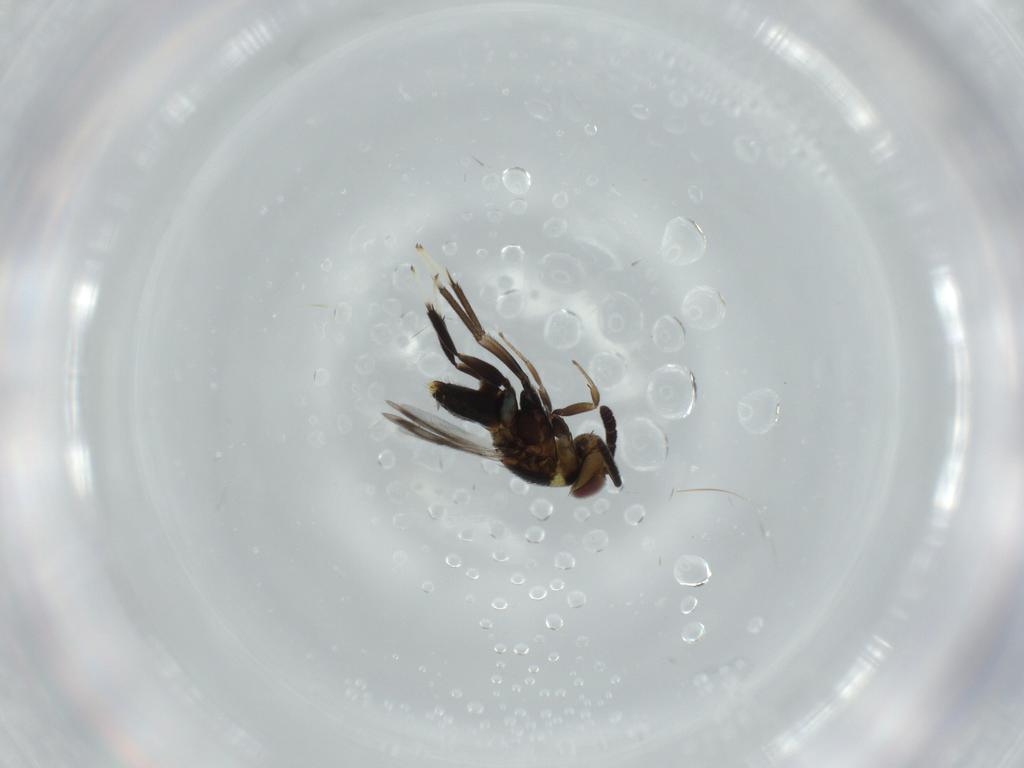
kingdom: Animalia
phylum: Arthropoda
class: Insecta
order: Hymenoptera
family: Aphelinidae
